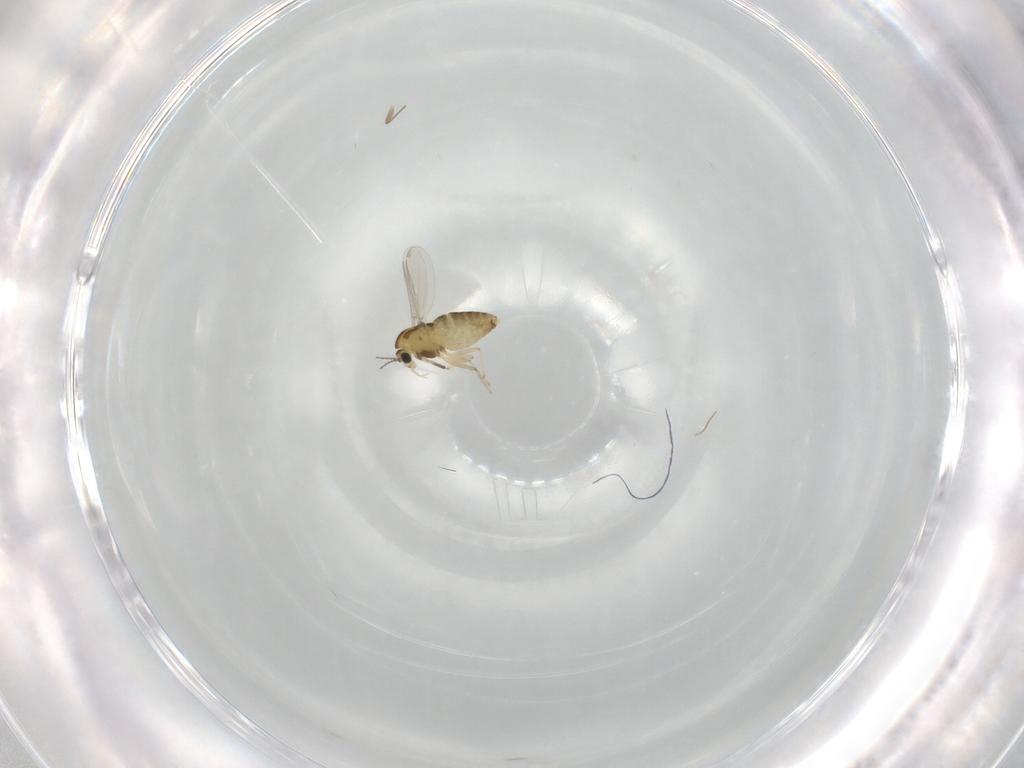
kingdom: Animalia
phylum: Arthropoda
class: Insecta
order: Diptera
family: Chironomidae
